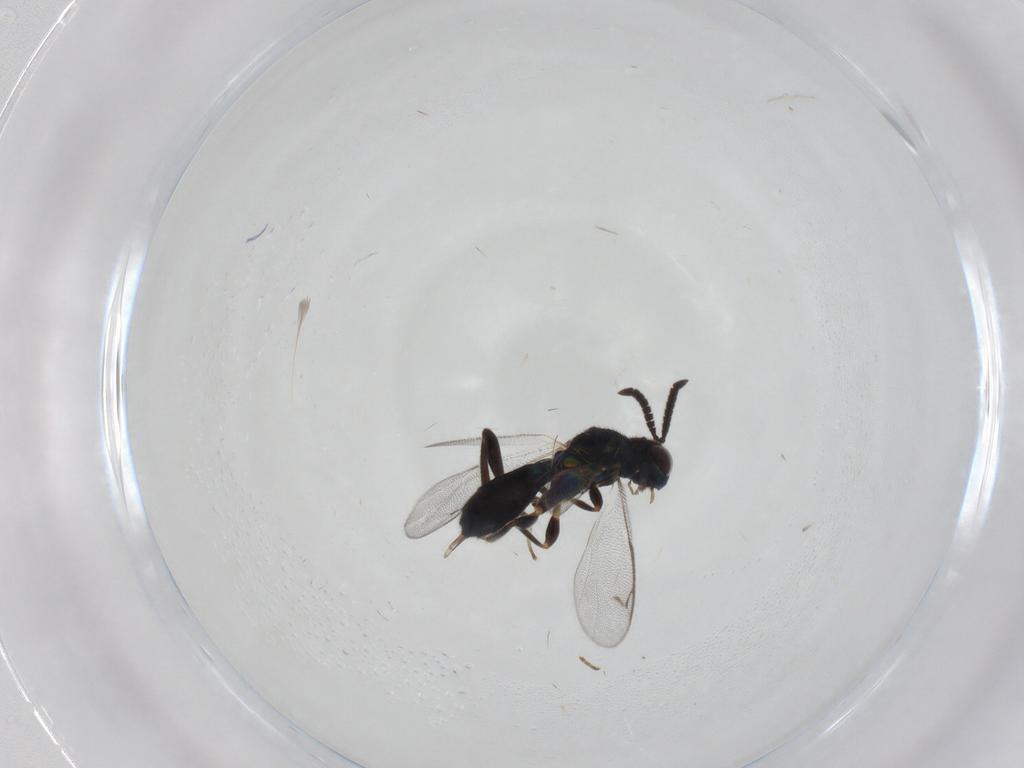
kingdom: Animalia
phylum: Arthropoda
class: Insecta
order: Hymenoptera
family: Cleonyminae
